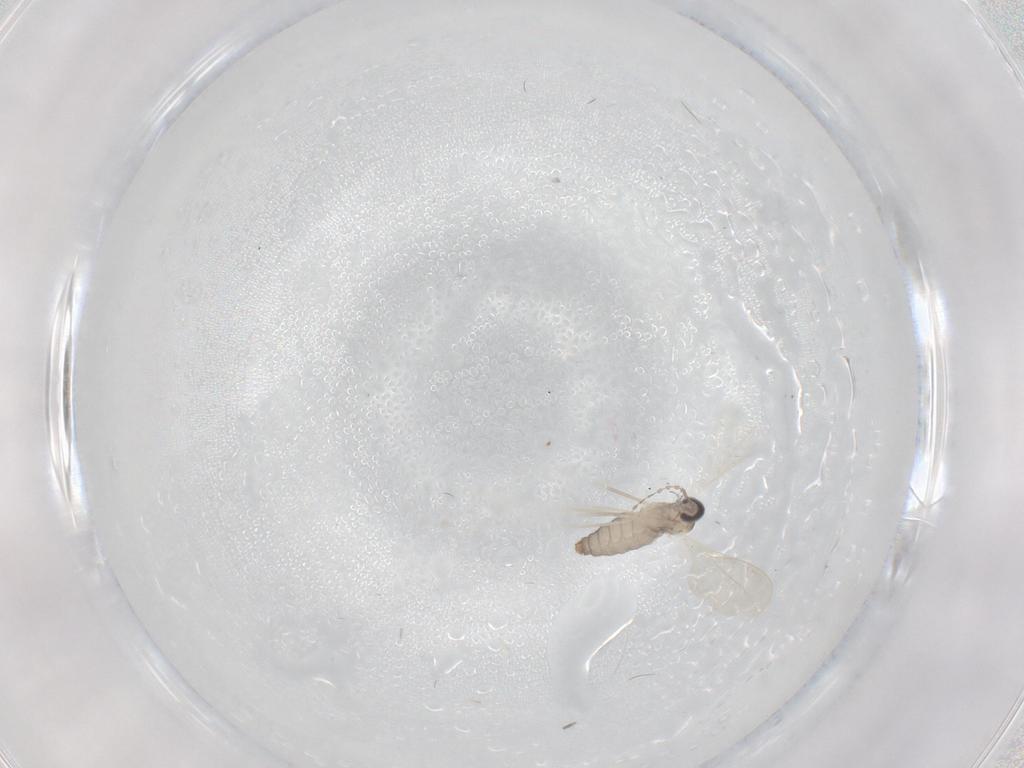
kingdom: Animalia
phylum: Arthropoda
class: Insecta
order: Diptera
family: Cecidomyiidae
